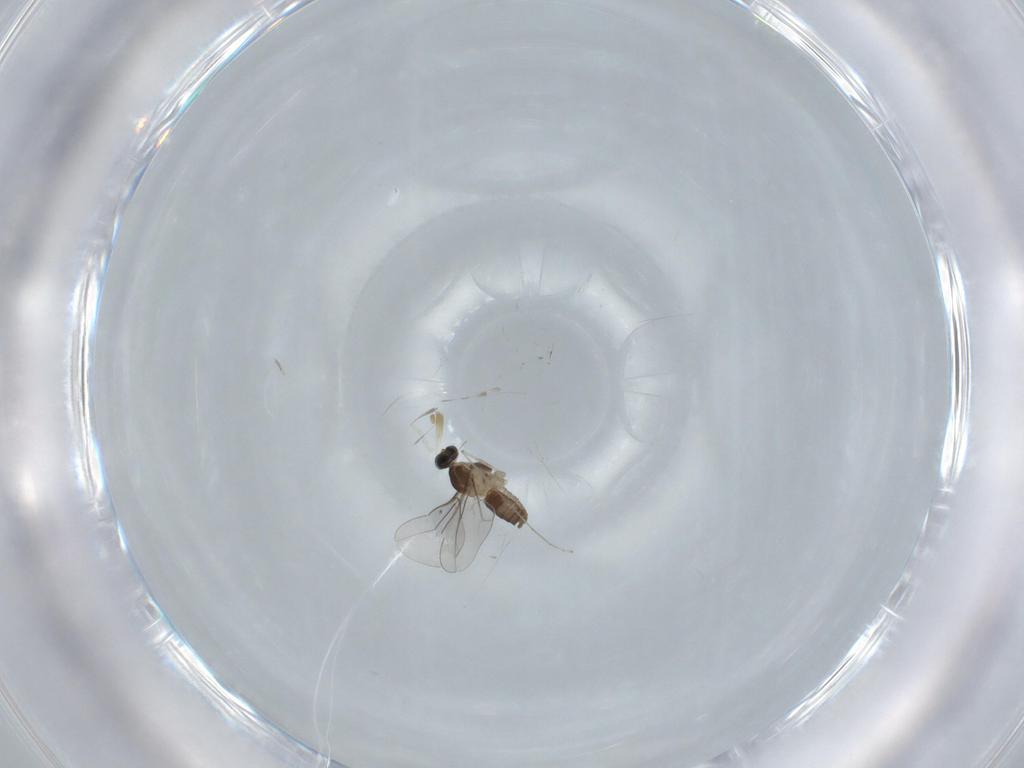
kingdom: Animalia
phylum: Arthropoda
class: Insecta
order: Diptera
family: Cecidomyiidae
